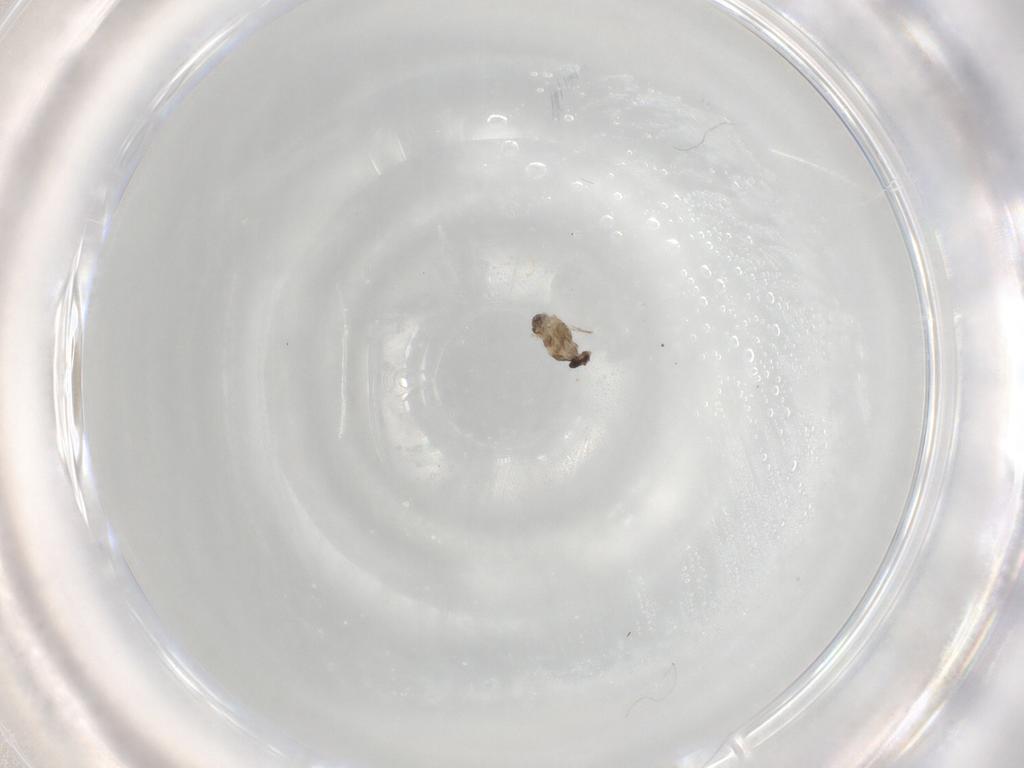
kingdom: Animalia
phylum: Arthropoda
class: Insecta
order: Diptera
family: Cecidomyiidae
